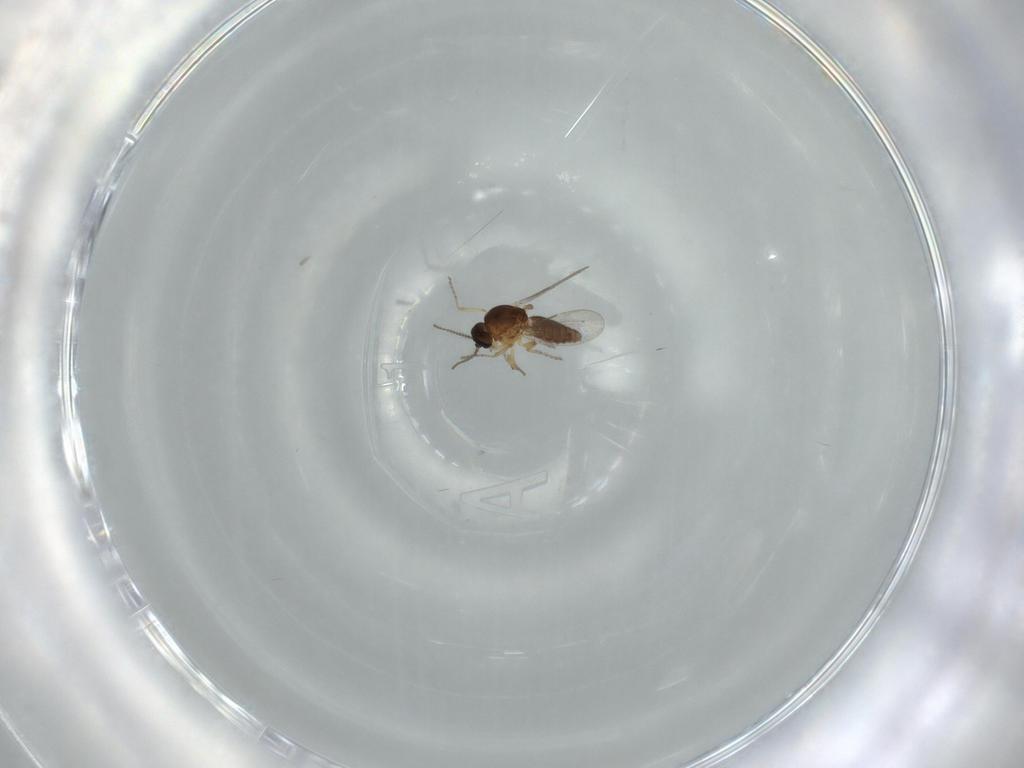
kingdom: Animalia
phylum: Arthropoda
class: Insecta
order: Diptera
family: Ceratopogonidae
